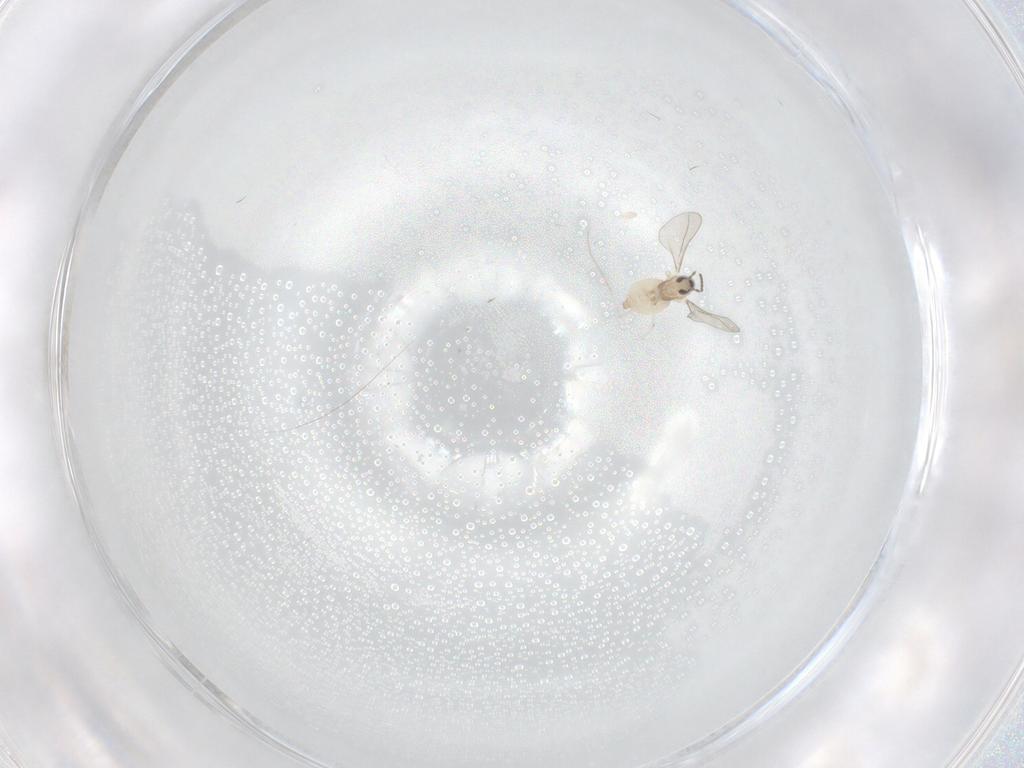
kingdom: Animalia
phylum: Arthropoda
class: Insecta
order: Diptera
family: Cecidomyiidae
